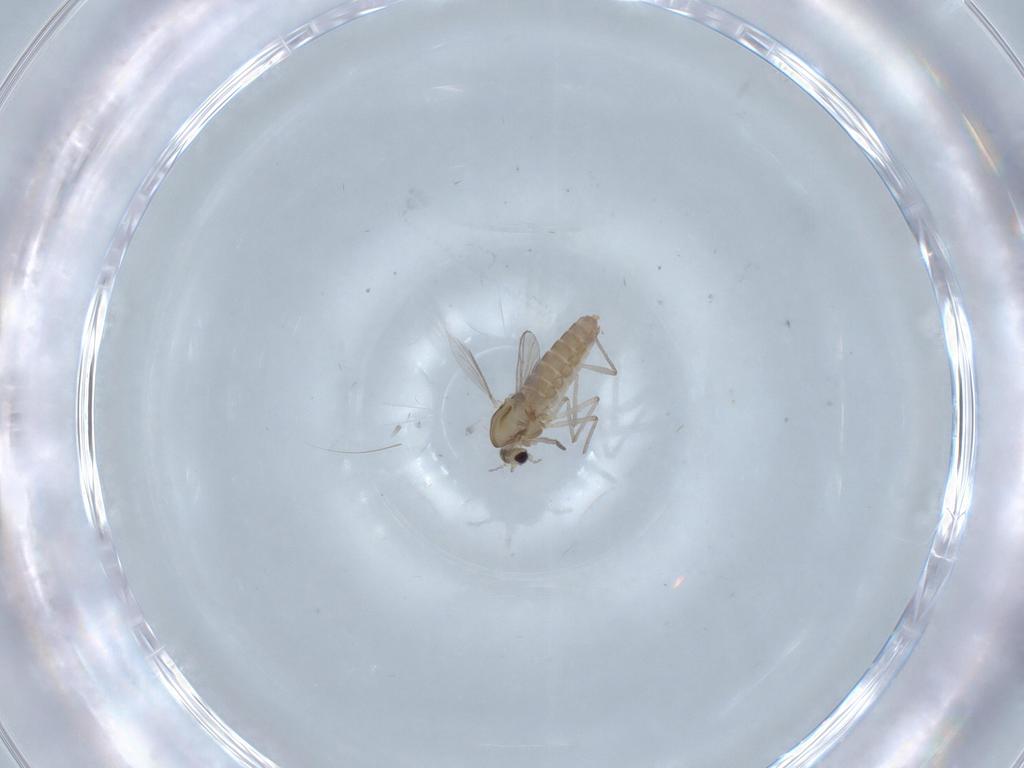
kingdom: Animalia
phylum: Arthropoda
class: Insecta
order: Diptera
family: Chironomidae
